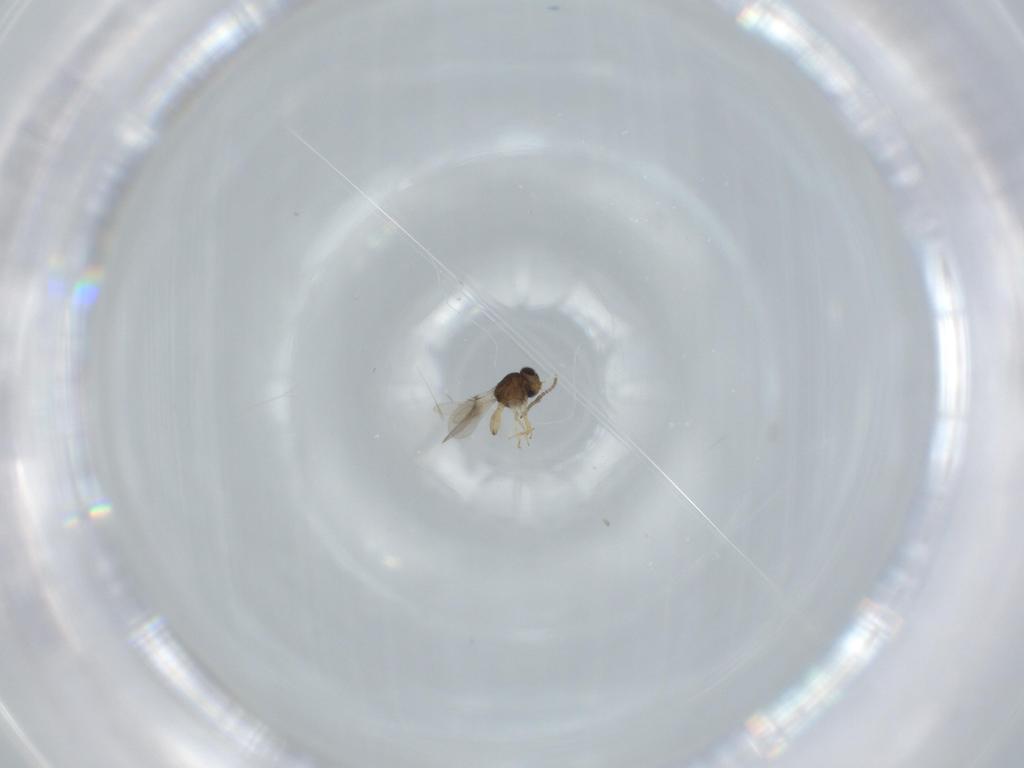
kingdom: Animalia
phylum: Arthropoda
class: Insecta
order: Hymenoptera
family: Scelionidae
